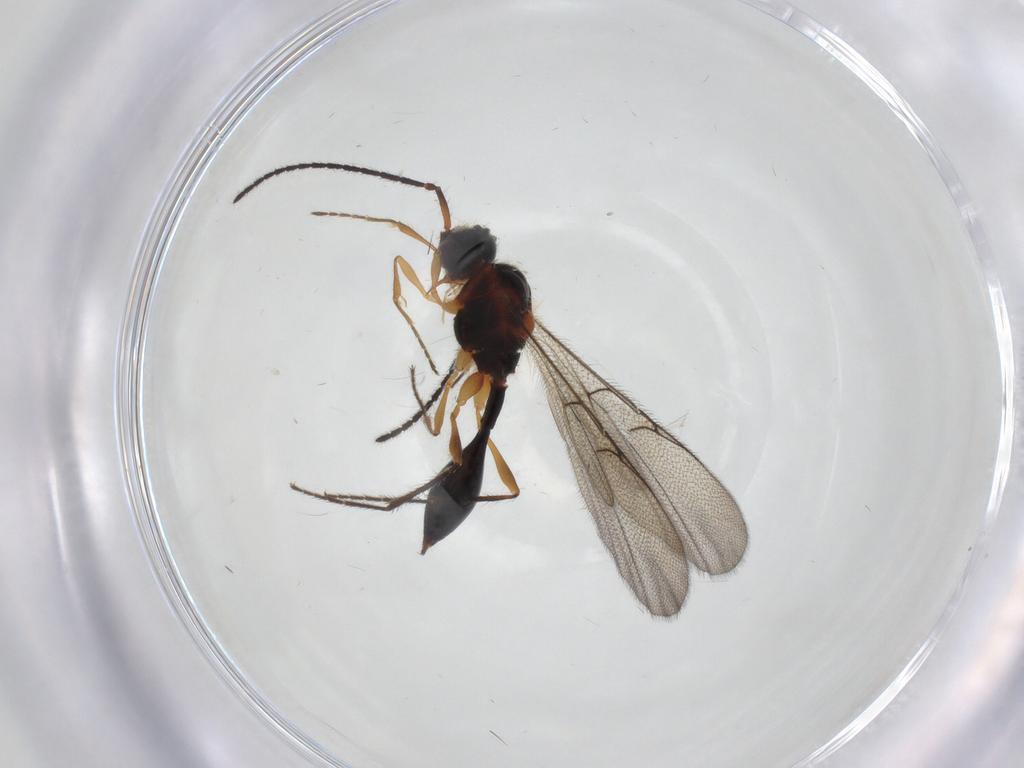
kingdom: Animalia
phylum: Arthropoda
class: Insecta
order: Hymenoptera
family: Diapriidae
